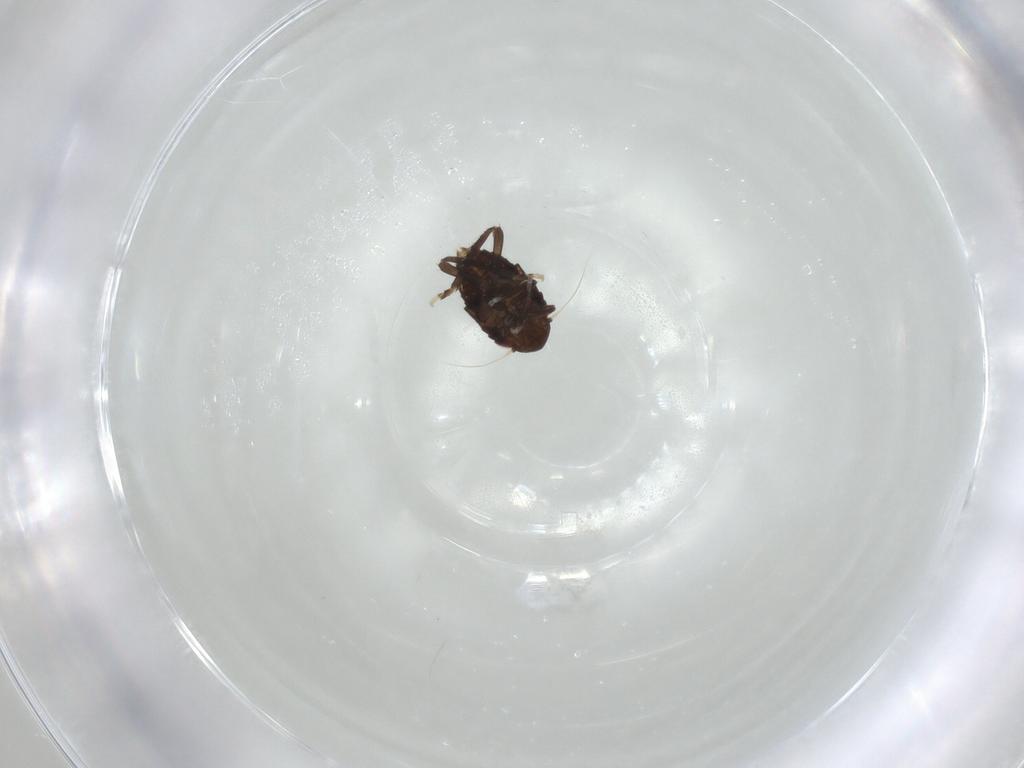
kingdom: Animalia
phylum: Arthropoda
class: Insecta
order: Hemiptera
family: Cicadellidae
